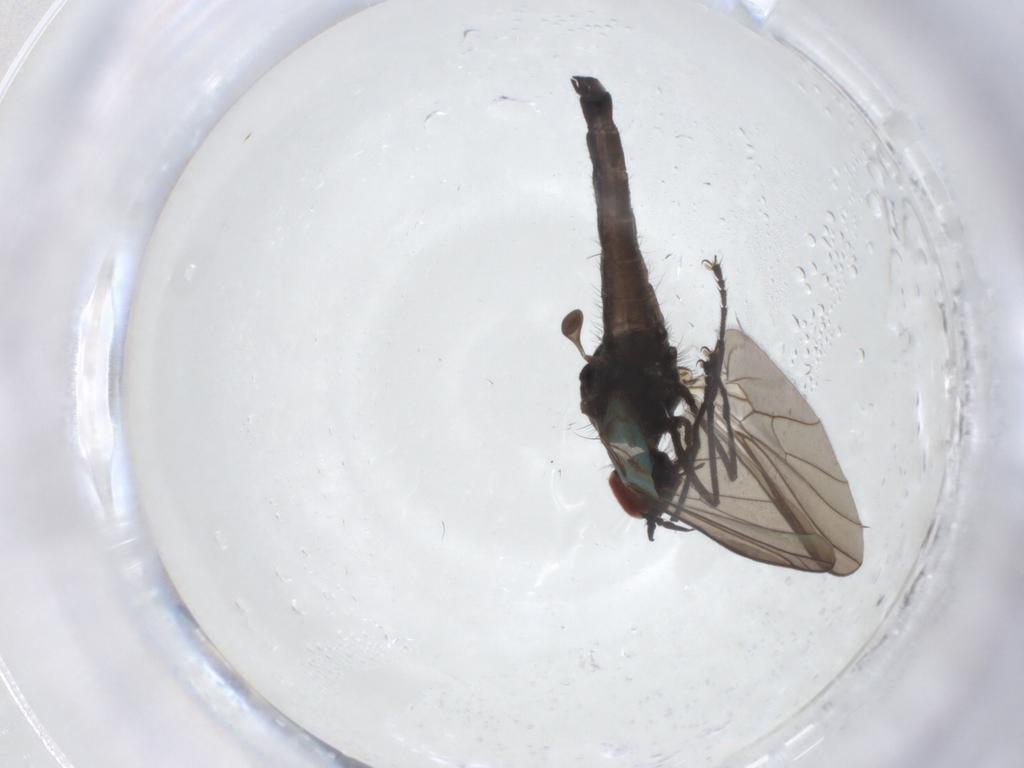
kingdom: Animalia
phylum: Arthropoda
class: Insecta
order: Diptera
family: Empididae
